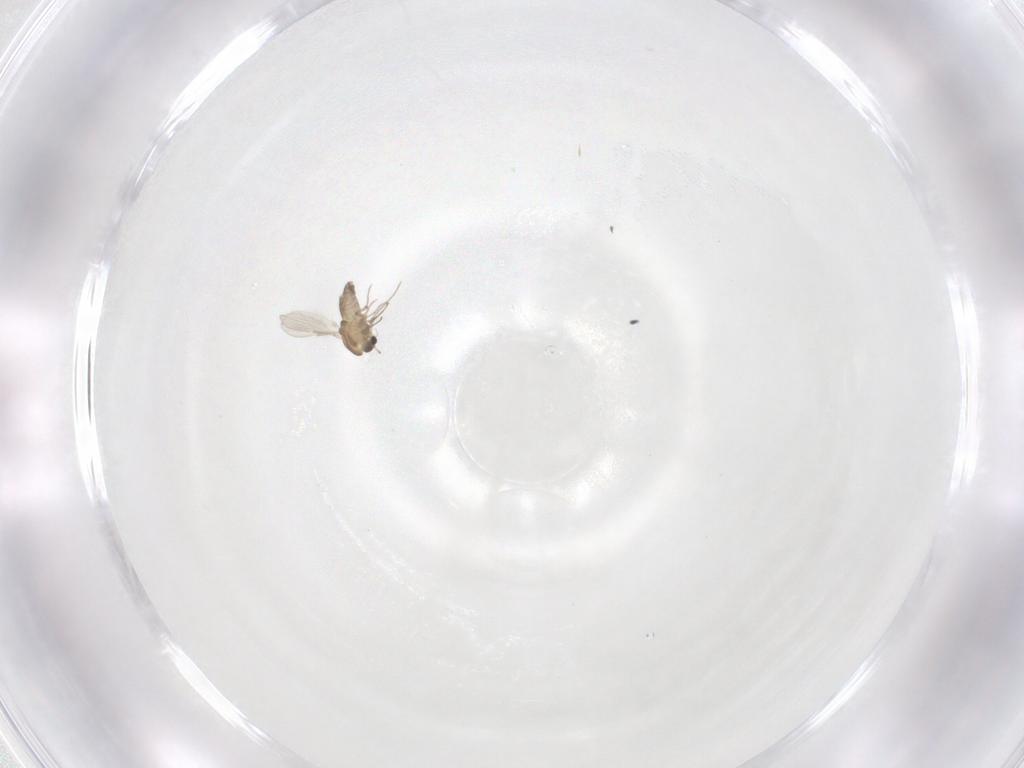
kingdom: Animalia
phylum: Arthropoda
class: Insecta
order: Diptera
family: Chironomidae
